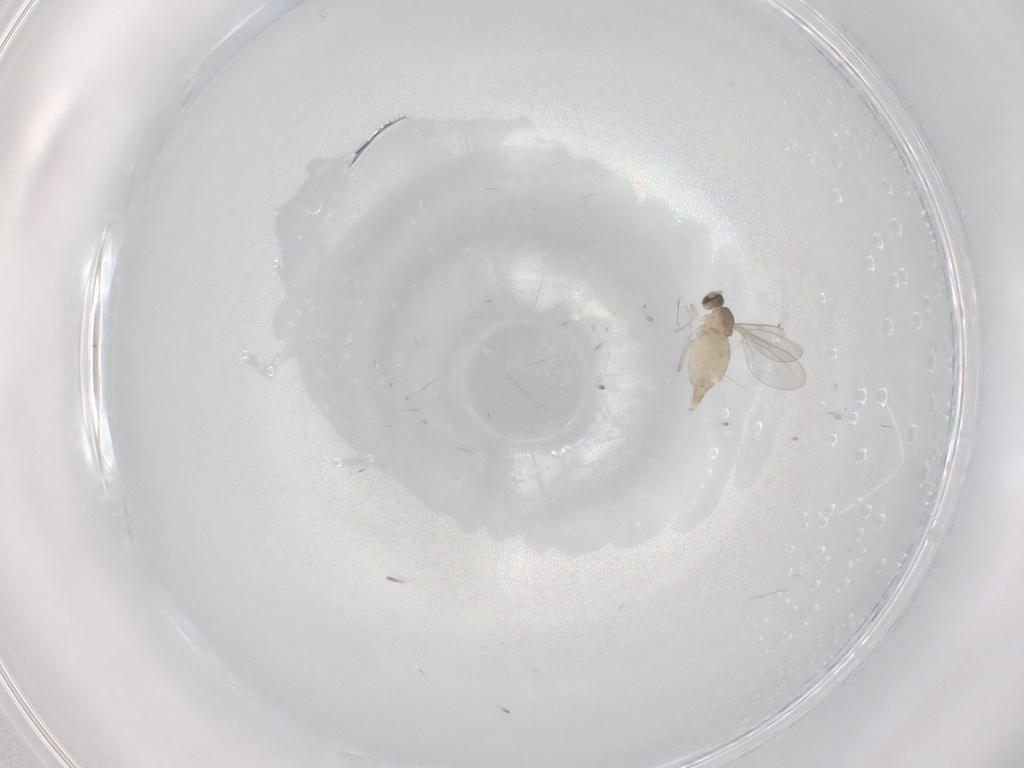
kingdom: Animalia
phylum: Arthropoda
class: Insecta
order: Diptera
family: Cecidomyiidae
